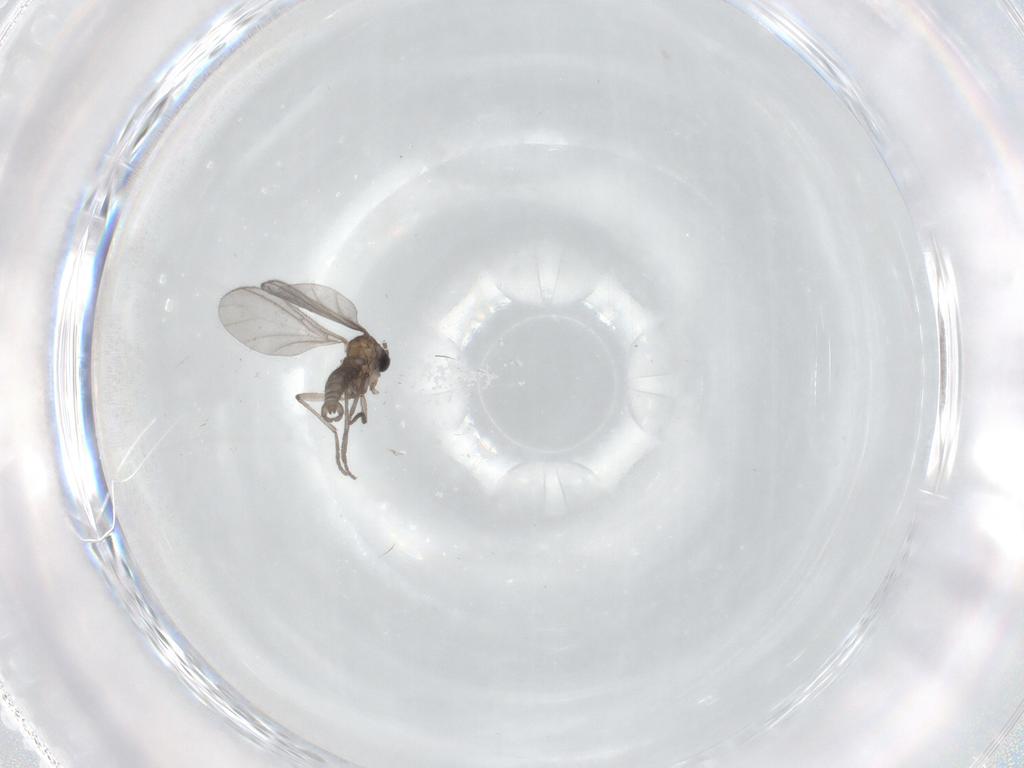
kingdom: Animalia
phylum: Arthropoda
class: Insecta
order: Diptera
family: Sciaridae
